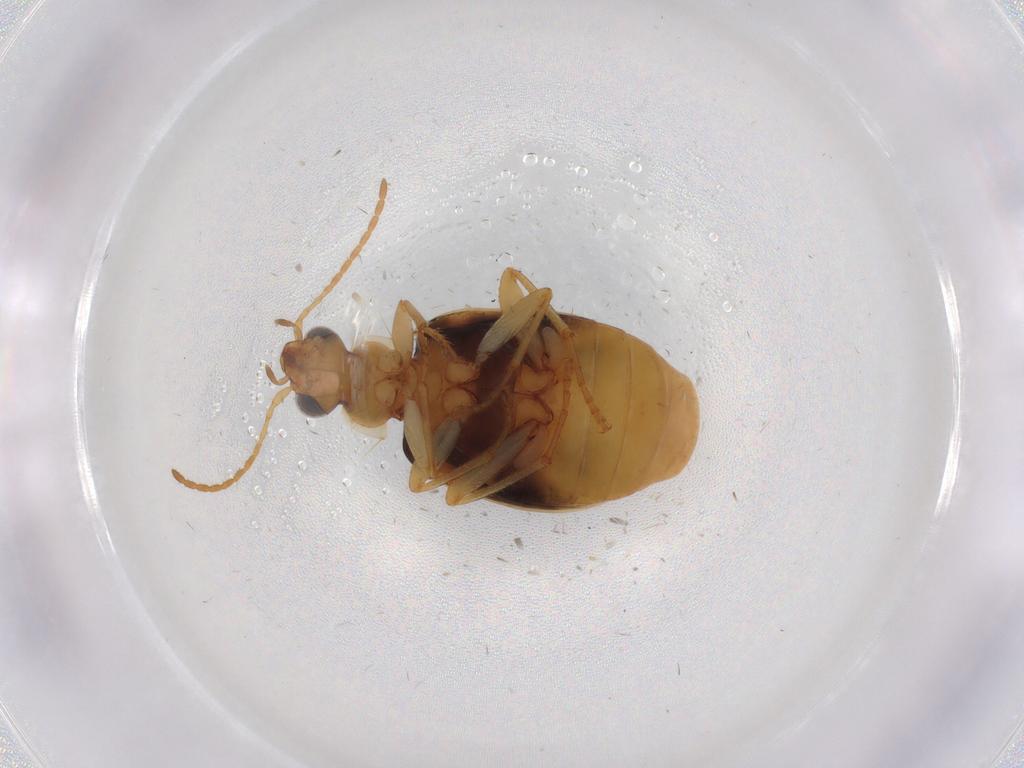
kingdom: Animalia
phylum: Arthropoda
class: Insecta
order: Coleoptera
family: Carabidae
